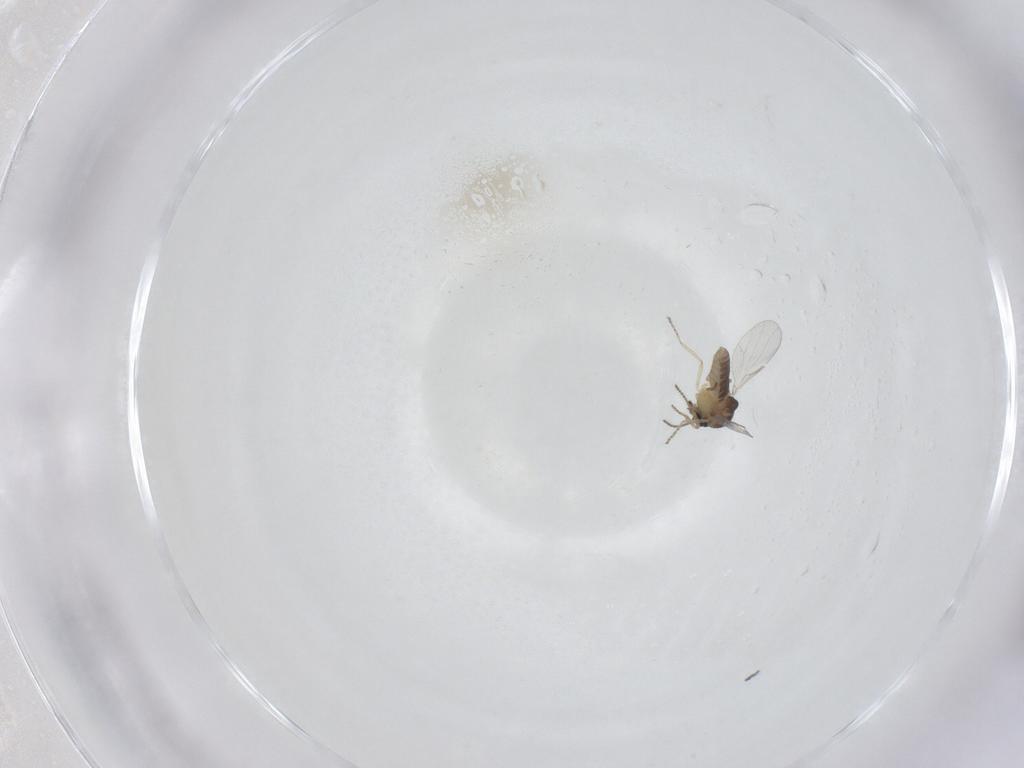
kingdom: Animalia
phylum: Arthropoda
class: Insecta
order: Diptera
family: Ceratopogonidae
